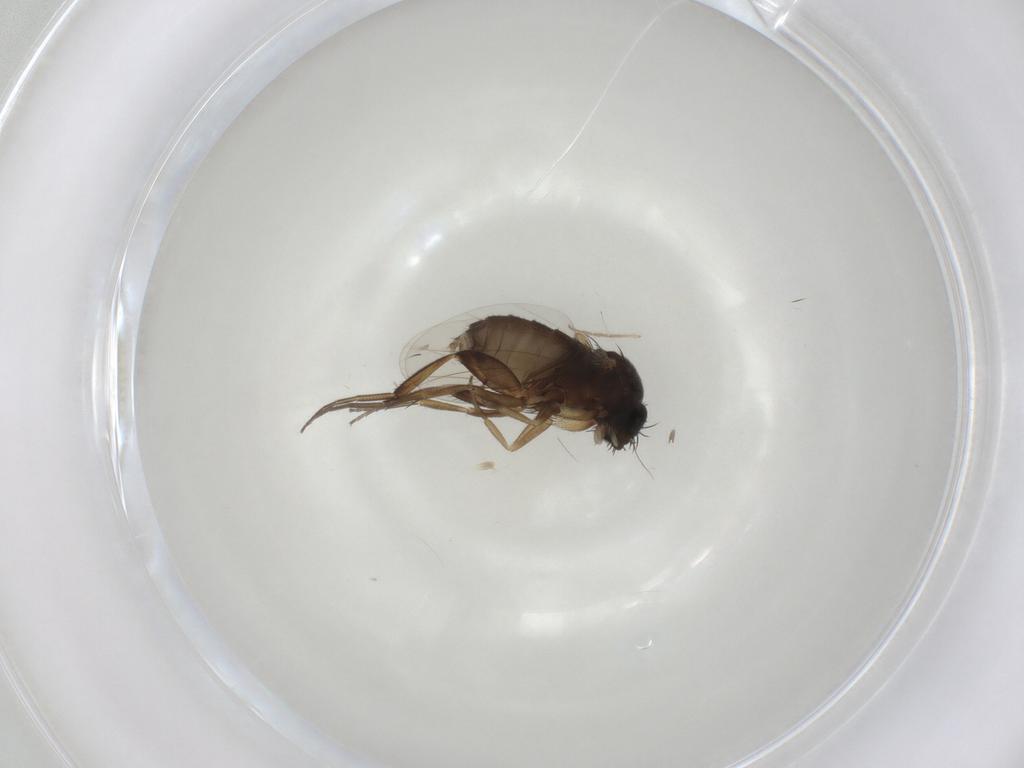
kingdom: Animalia
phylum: Arthropoda
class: Insecta
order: Diptera
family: Phoridae
